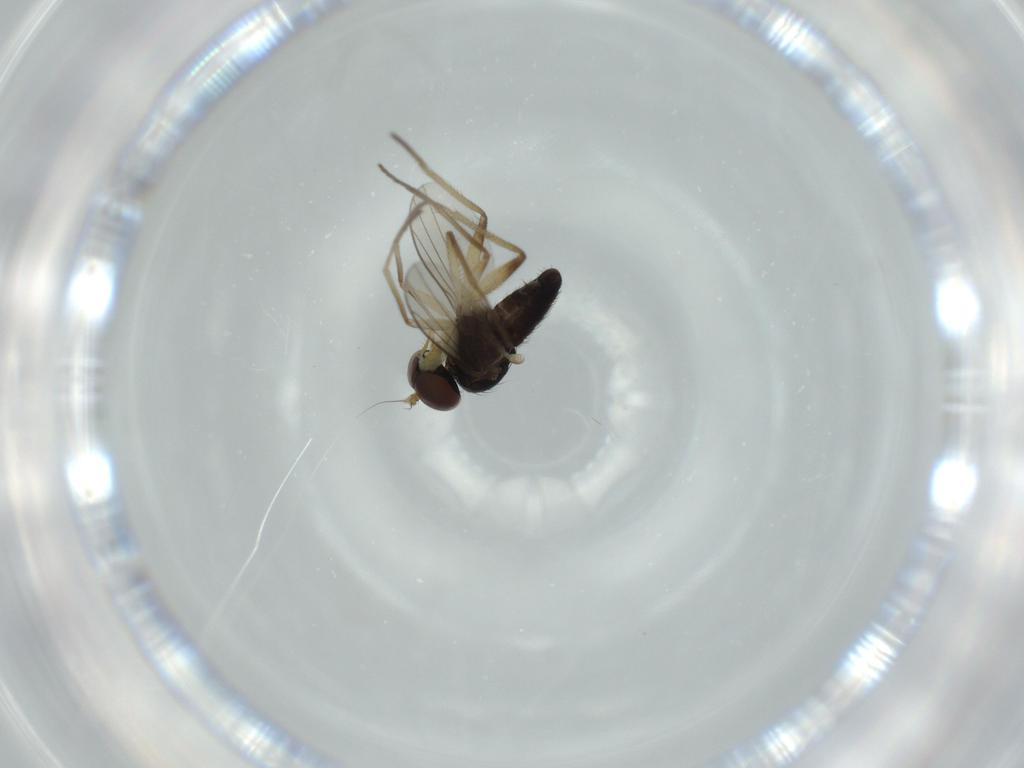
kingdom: Animalia
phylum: Arthropoda
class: Insecta
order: Diptera
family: Dolichopodidae
